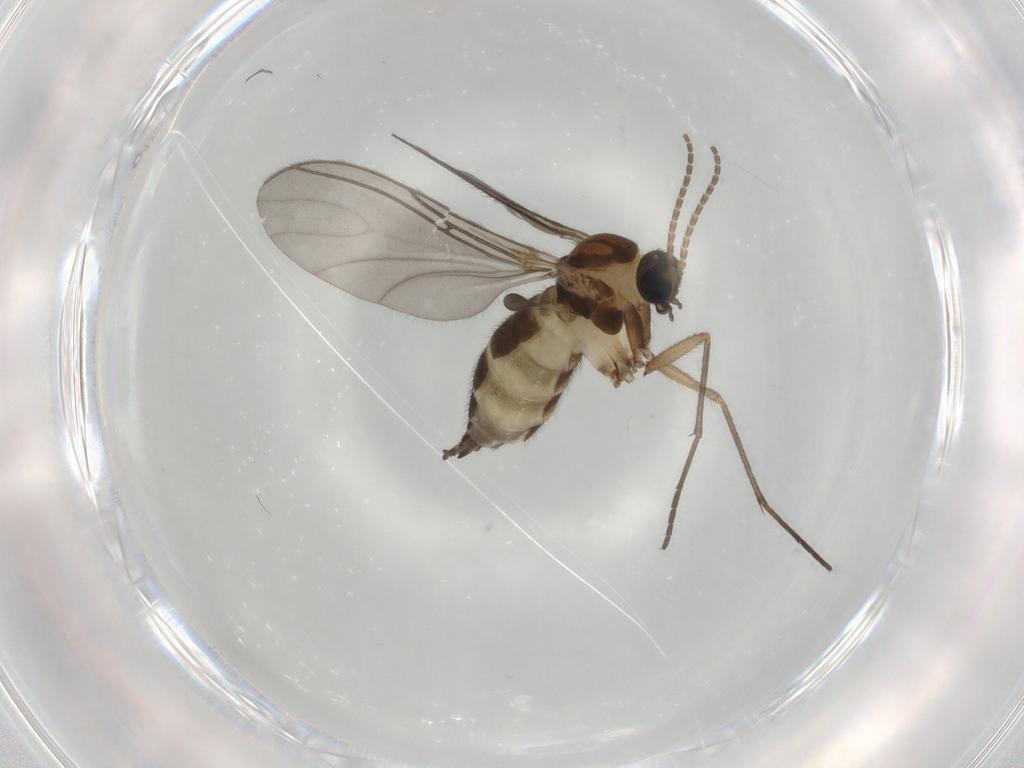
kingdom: Animalia
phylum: Arthropoda
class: Insecta
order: Diptera
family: Sciaridae
